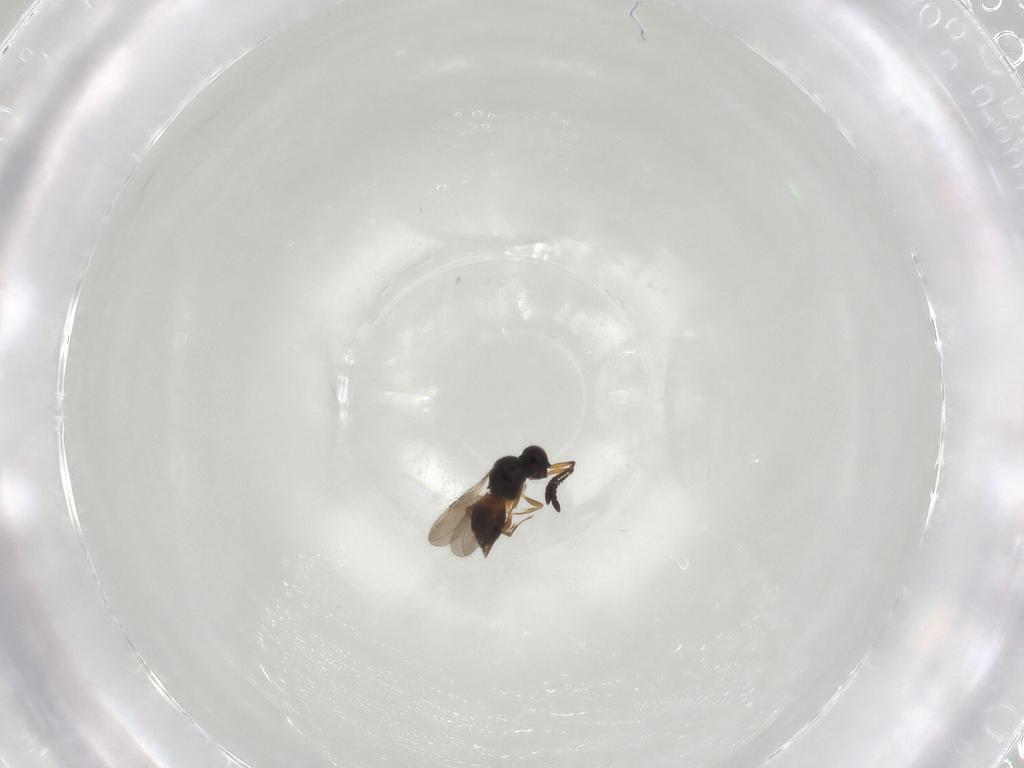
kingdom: Animalia
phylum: Arthropoda
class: Insecta
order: Hymenoptera
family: Ceraphronidae
